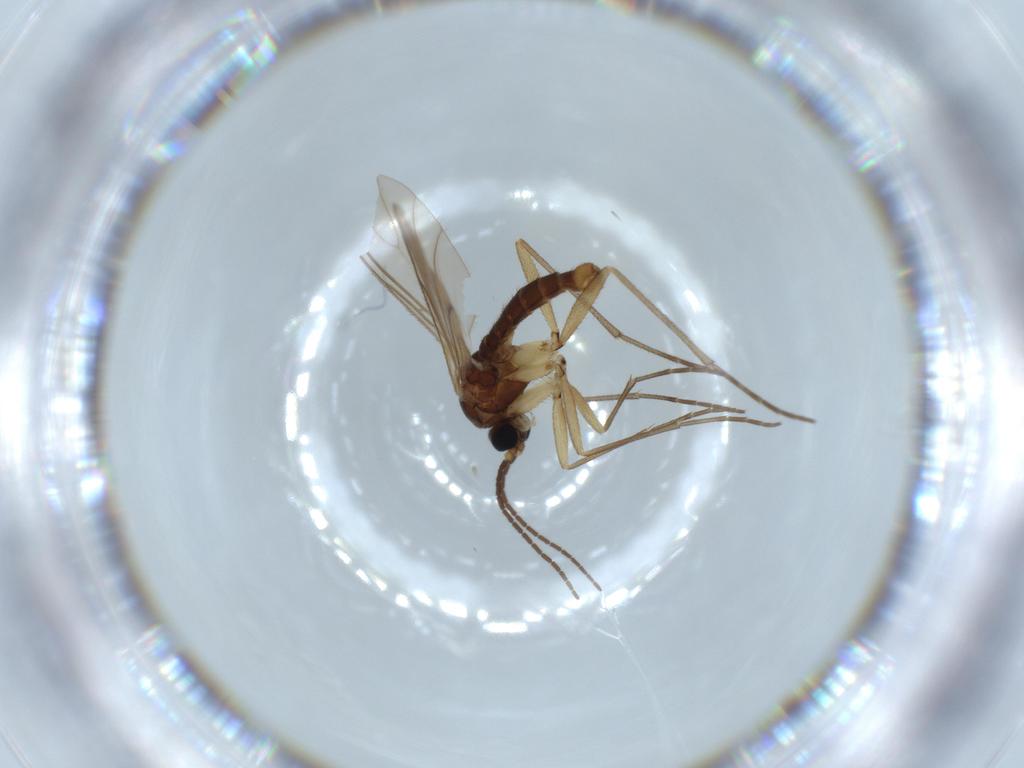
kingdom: Animalia
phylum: Arthropoda
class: Insecta
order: Diptera
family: Sciaridae
